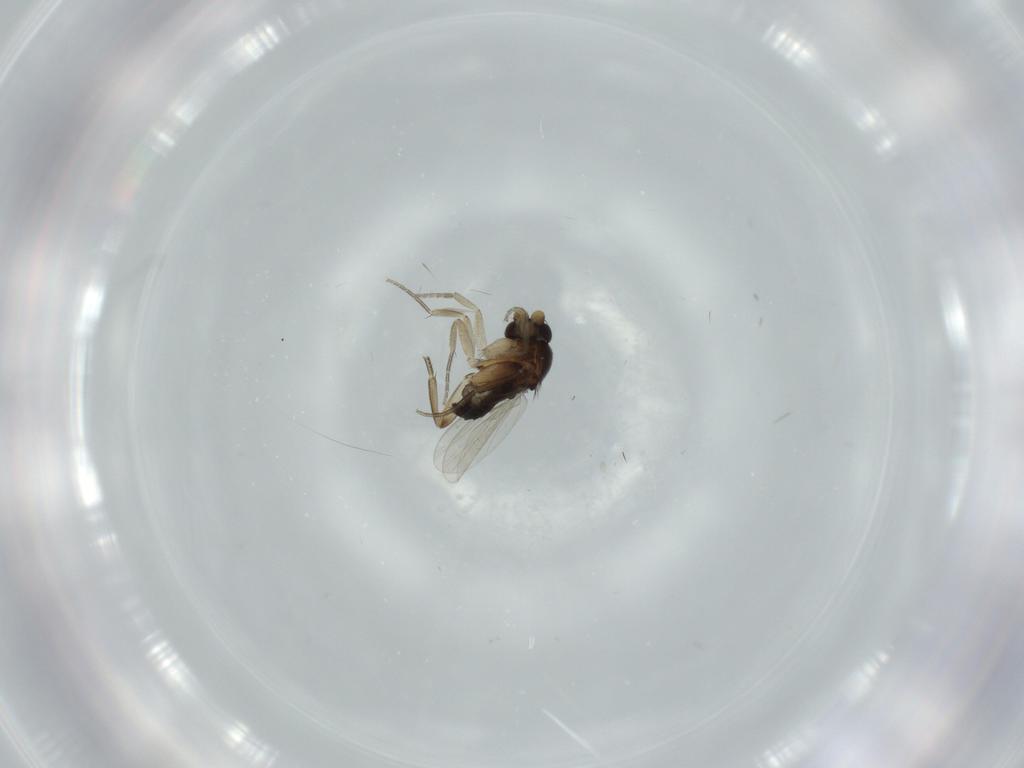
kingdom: Animalia
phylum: Arthropoda
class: Insecta
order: Diptera
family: Phoridae
